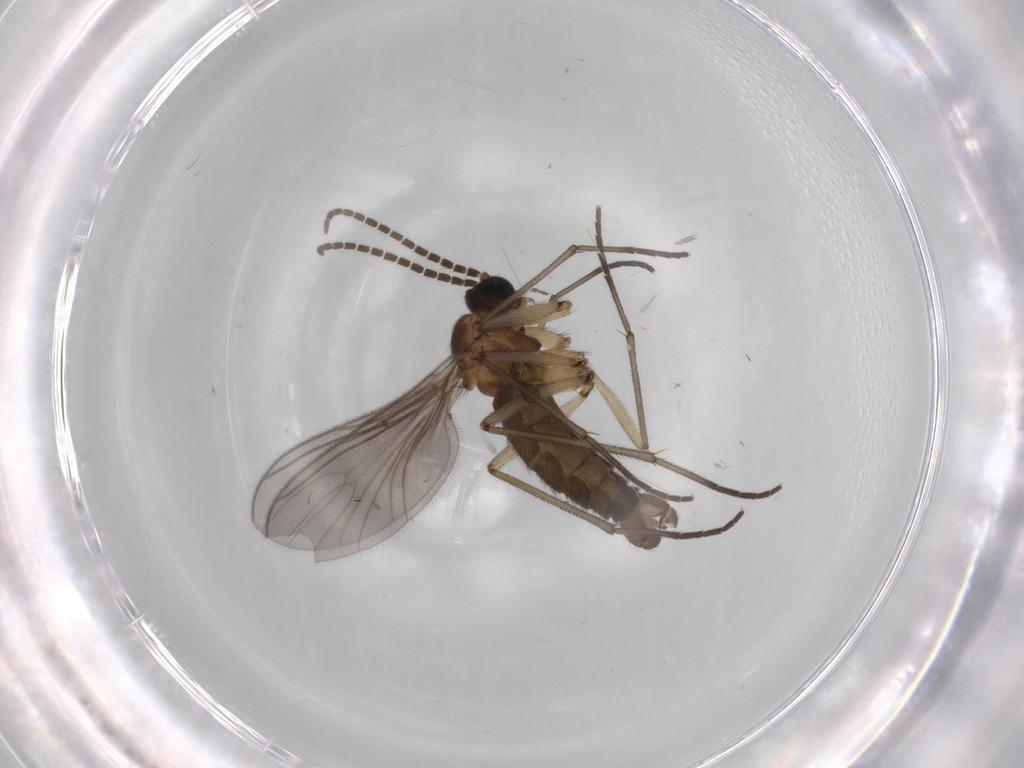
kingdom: Animalia
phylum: Arthropoda
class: Insecta
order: Diptera
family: Sciaridae
